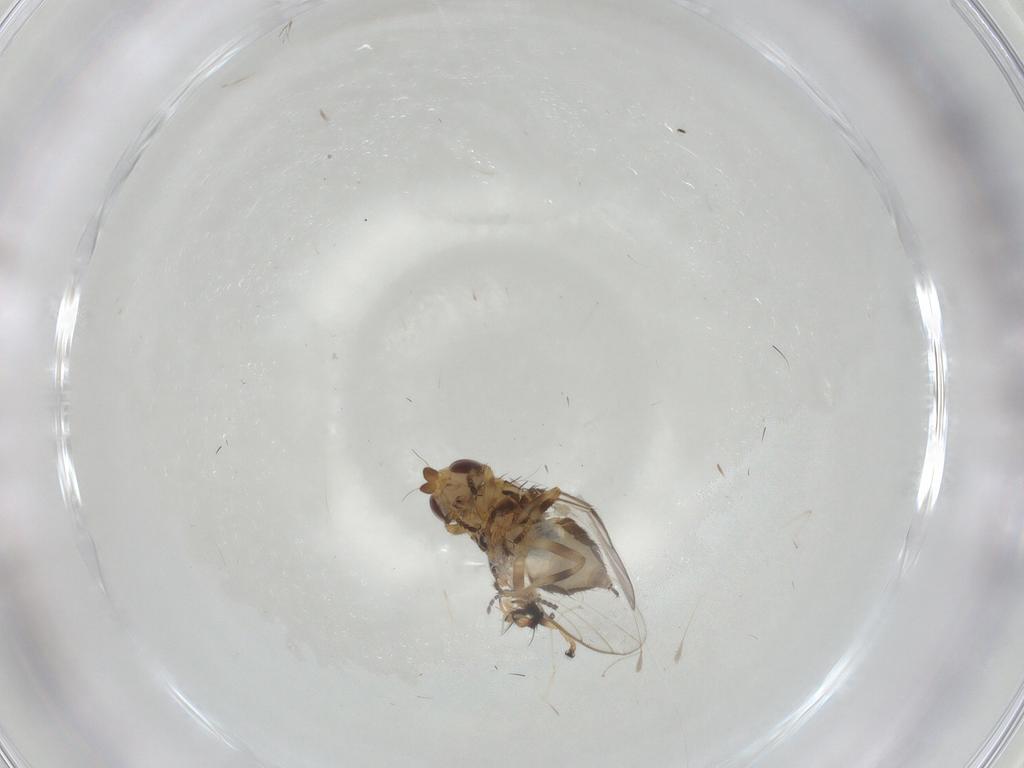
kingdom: Animalia
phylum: Arthropoda
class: Insecta
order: Diptera
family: Chloropidae
